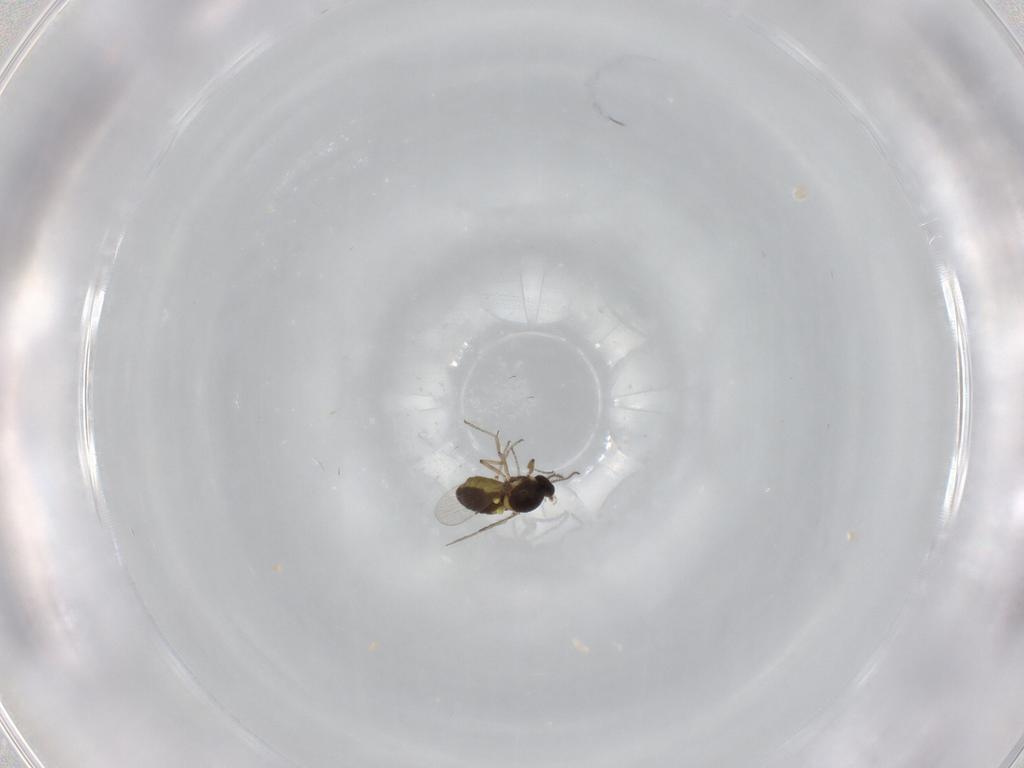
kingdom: Animalia
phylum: Arthropoda
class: Insecta
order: Diptera
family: Ceratopogonidae
